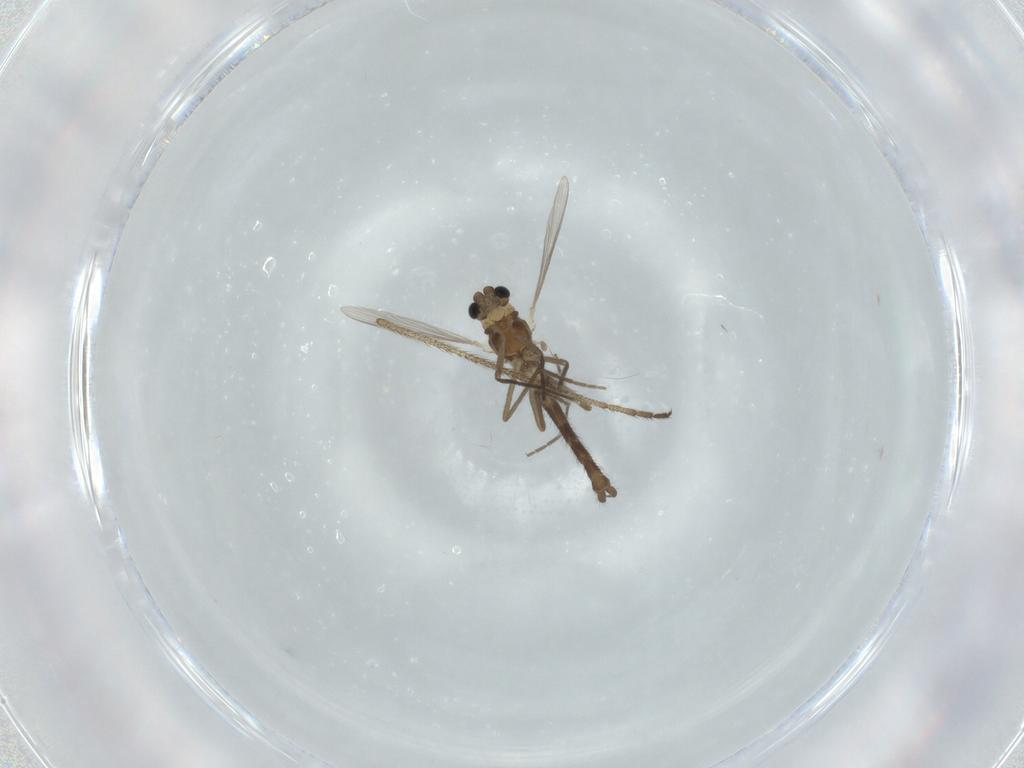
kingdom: Animalia
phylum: Arthropoda
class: Insecta
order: Diptera
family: Chironomidae
